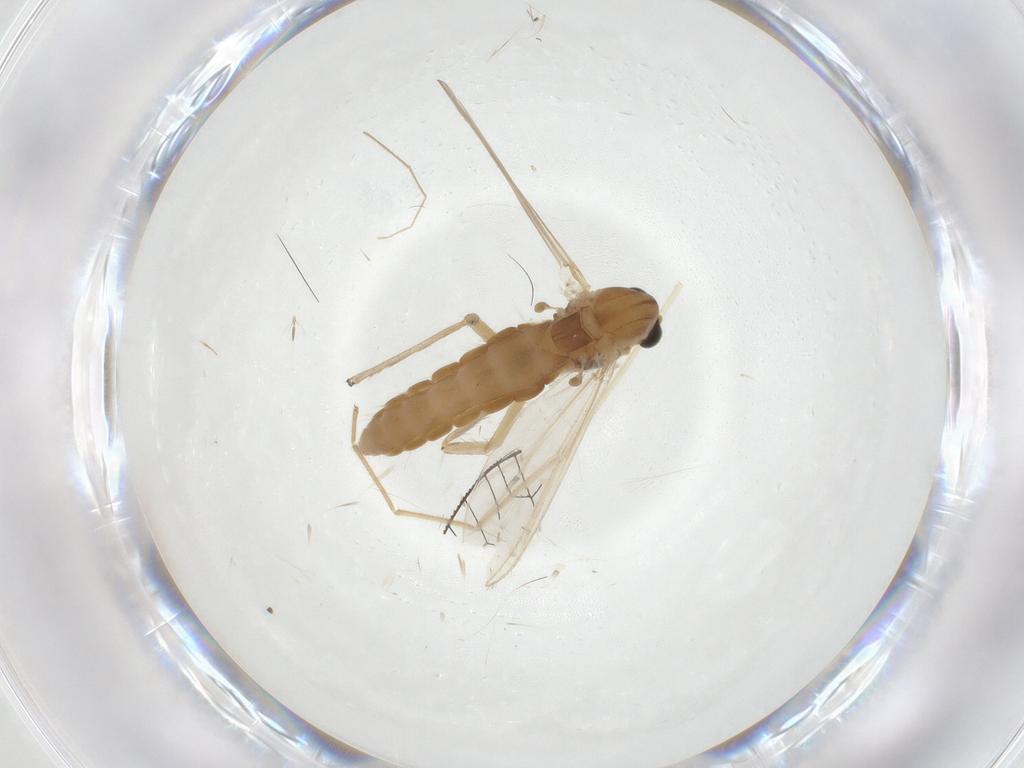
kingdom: Animalia
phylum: Arthropoda
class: Insecta
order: Diptera
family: Chironomidae
